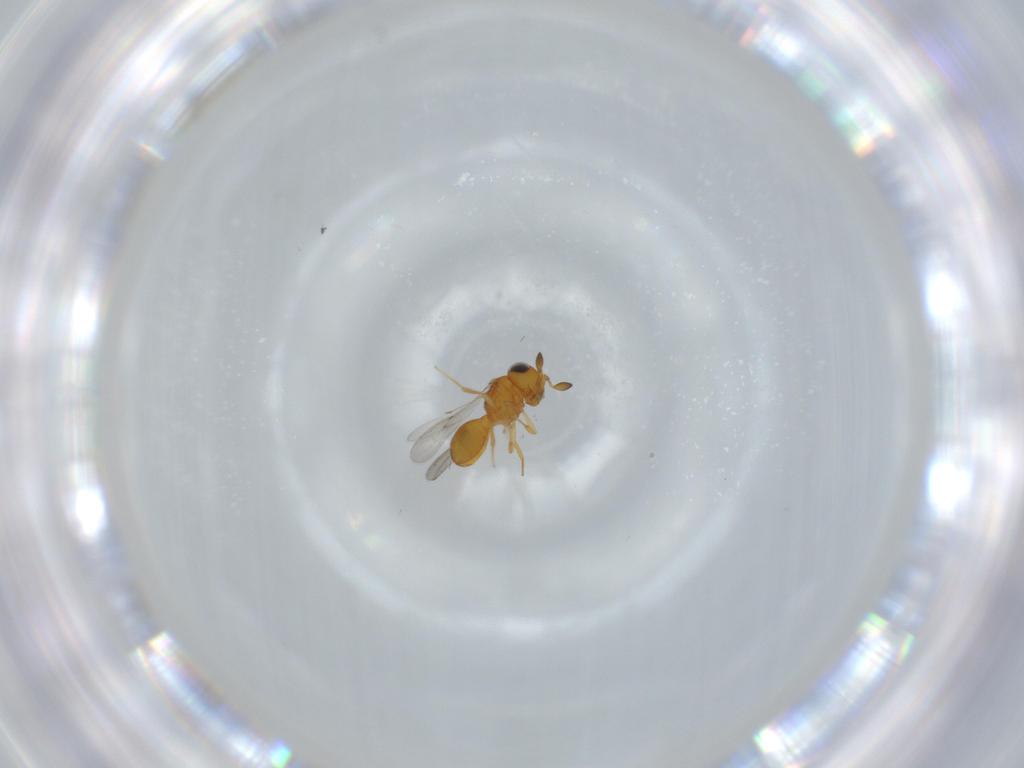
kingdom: Animalia
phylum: Arthropoda
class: Insecta
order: Hymenoptera
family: Scelionidae
